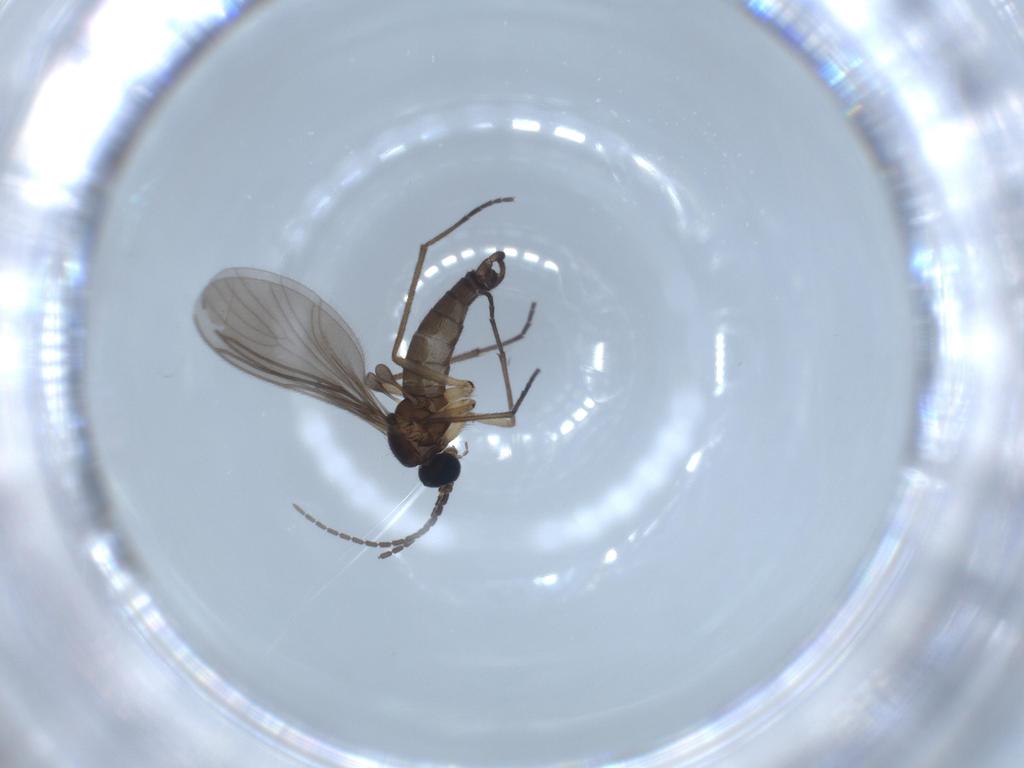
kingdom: Animalia
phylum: Arthropoda
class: Insecta
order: Diptera
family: Sciaridae
